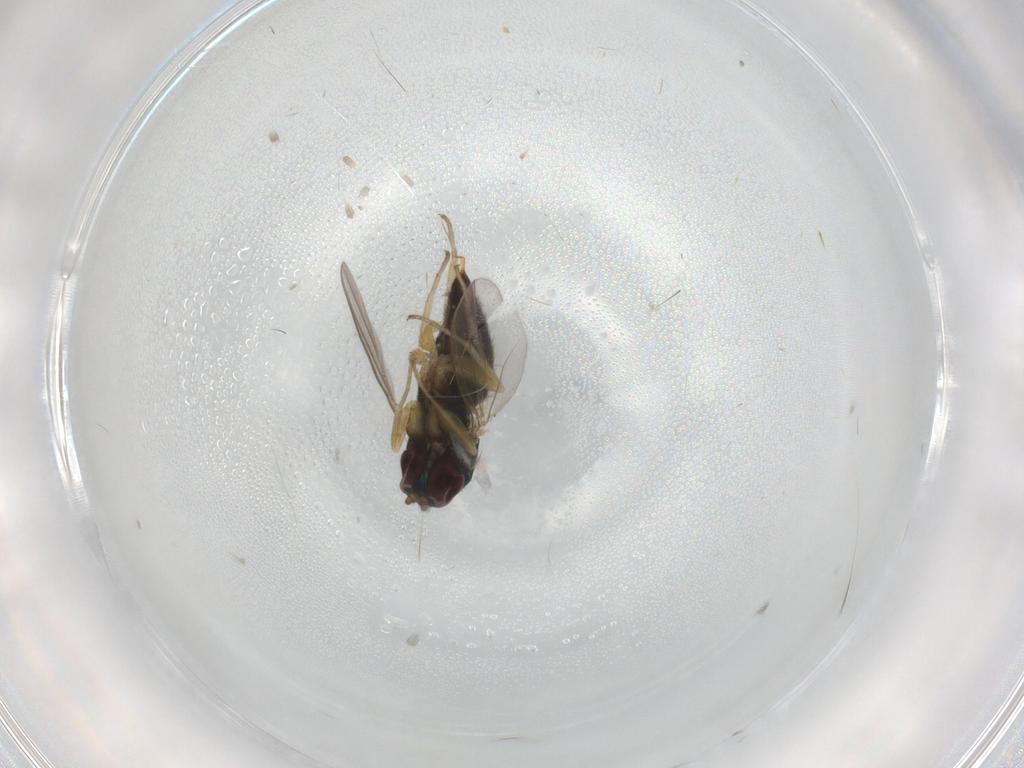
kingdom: Animalia
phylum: Arthropoda
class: Insecta
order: Diptera
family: Dolichopodidae
